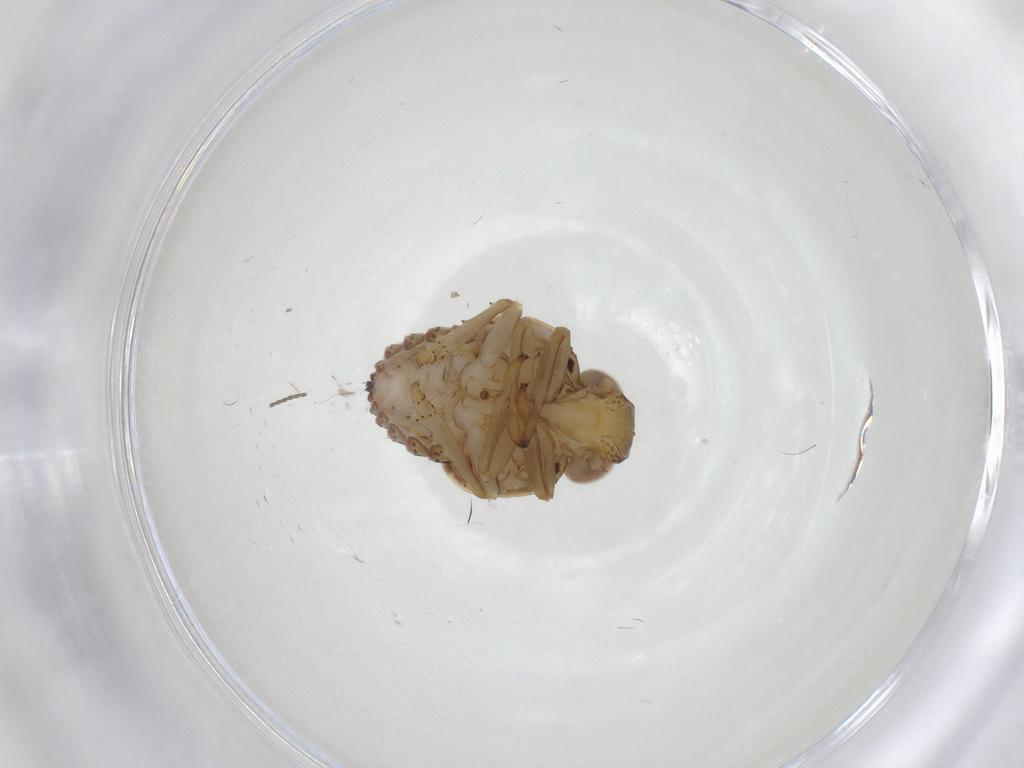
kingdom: Animalia
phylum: Arthropoda
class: Insecta
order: Hemiptera
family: Issidae
